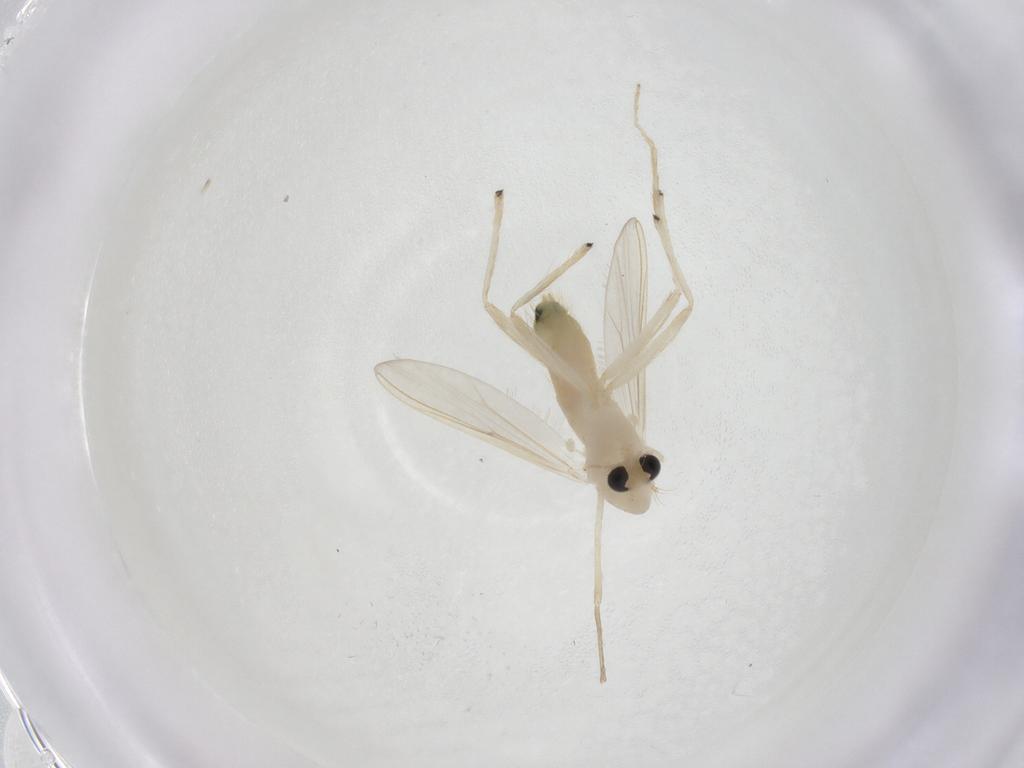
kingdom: Animalia
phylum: Arthropoda
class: Insecta
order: Diptera
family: Chironomidae
